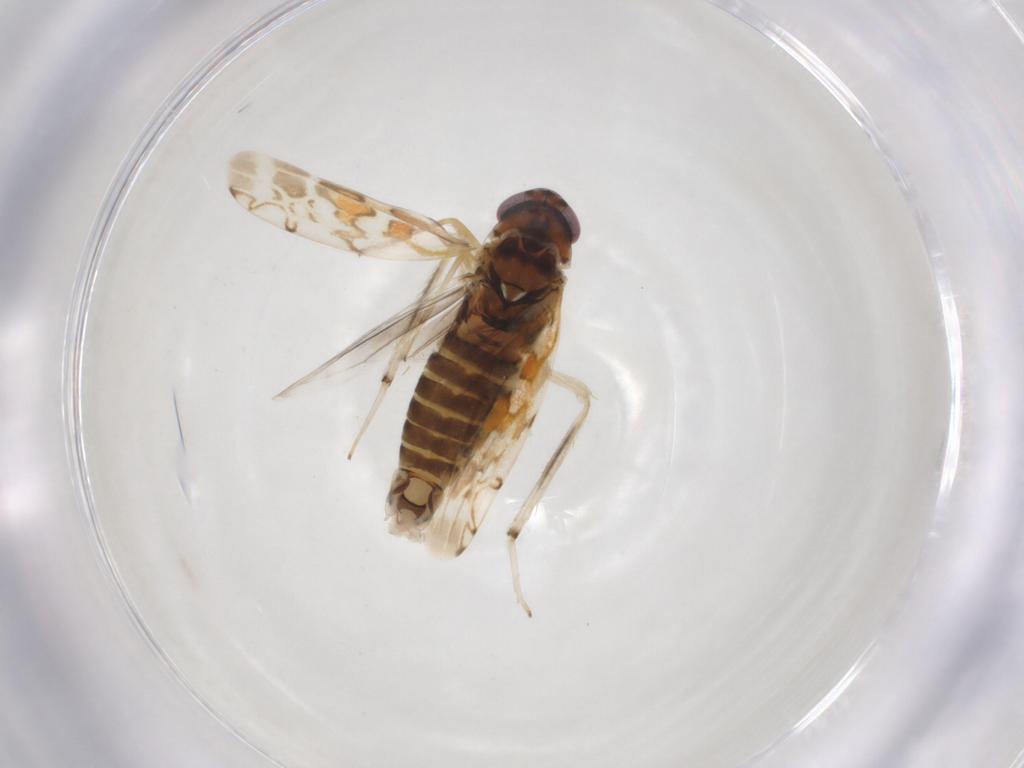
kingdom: Animalia
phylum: Arthropoda
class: Insecta
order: Hemiptera
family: Cicadellidae
